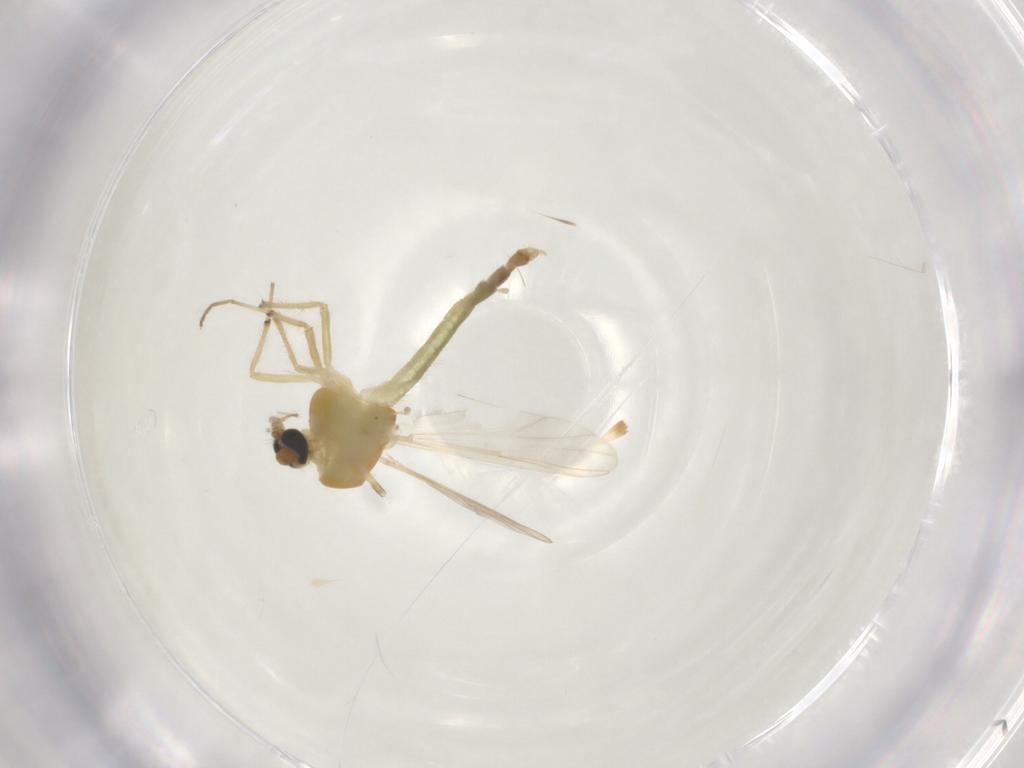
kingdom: Animalia
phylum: Arthropoda
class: Insecta
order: Diptera
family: Chironomidae
